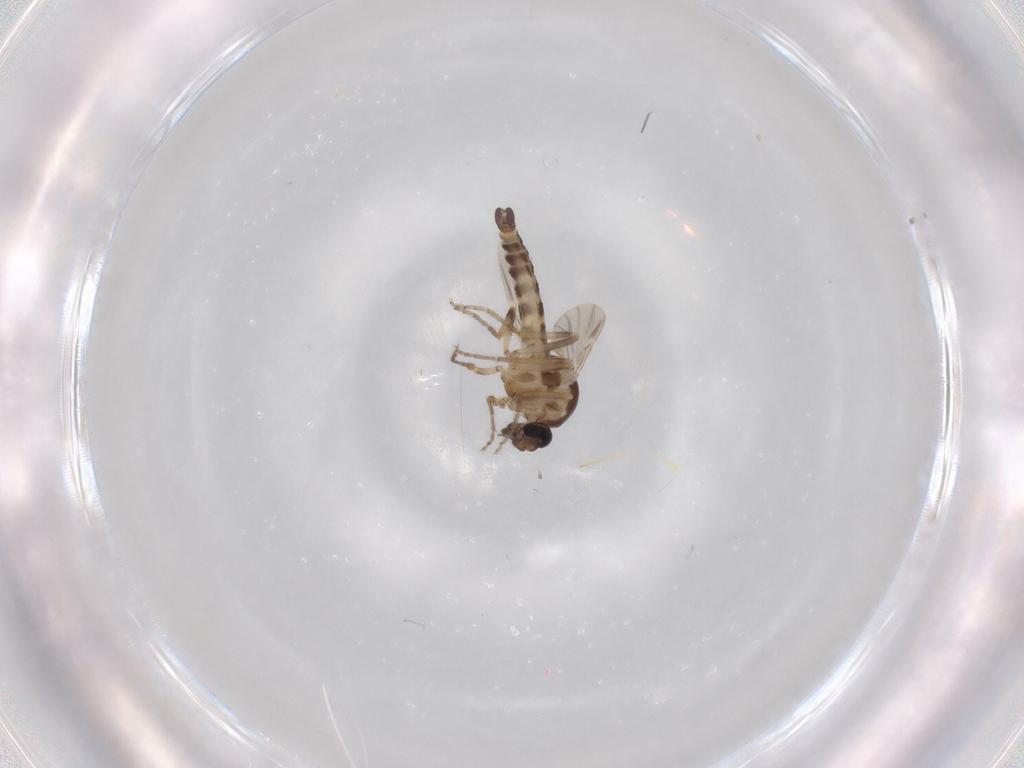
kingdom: Animalia
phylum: Arthropoda
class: Insecta
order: Diptera
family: Ceratopogonidae
